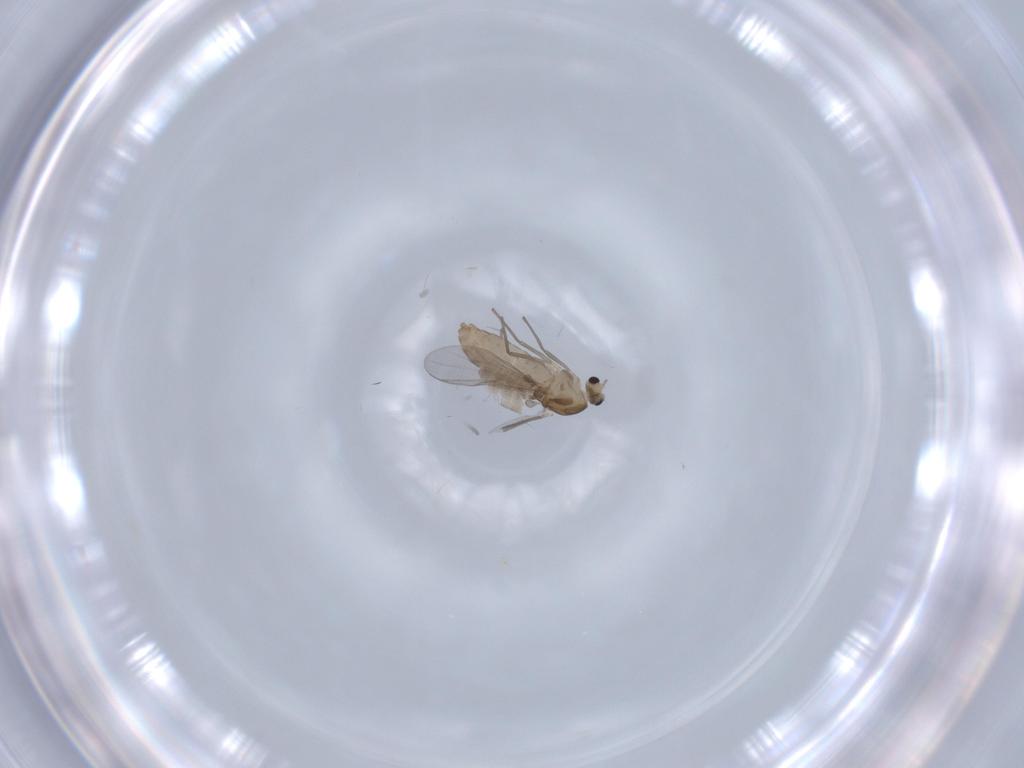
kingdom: Animalia
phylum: Arthropoda
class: Insecta
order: Diptera
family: Chironomidae
